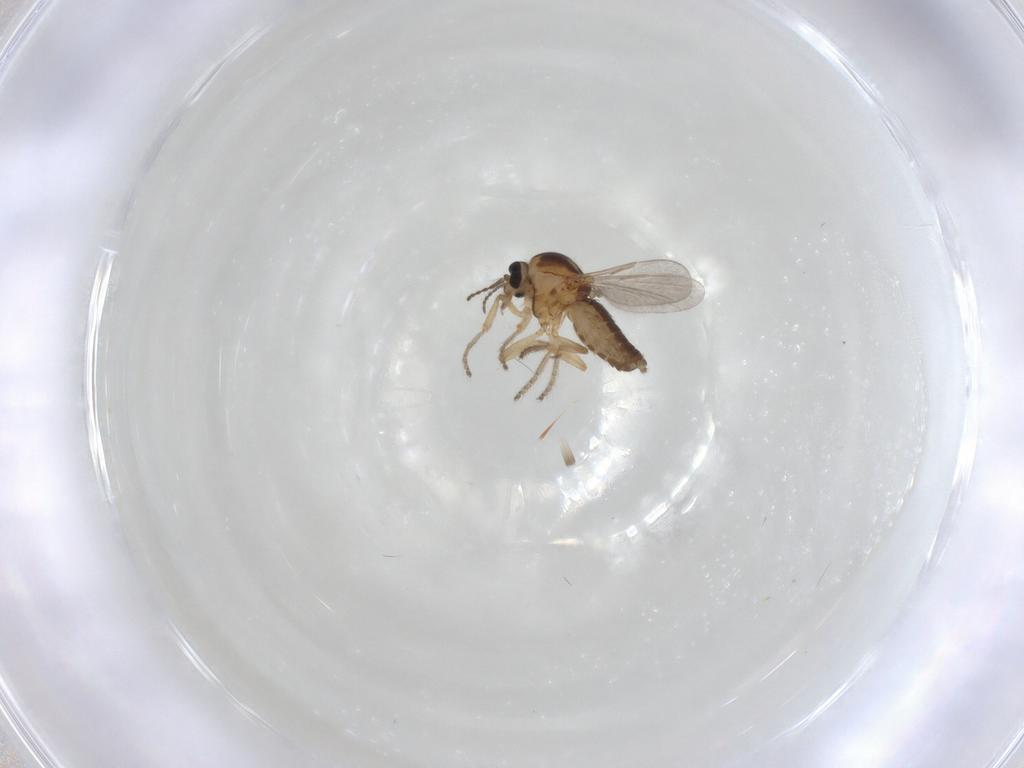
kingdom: Animalia
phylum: Arthropoda
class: Insecta
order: Diptera
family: Ceratopogonidae
